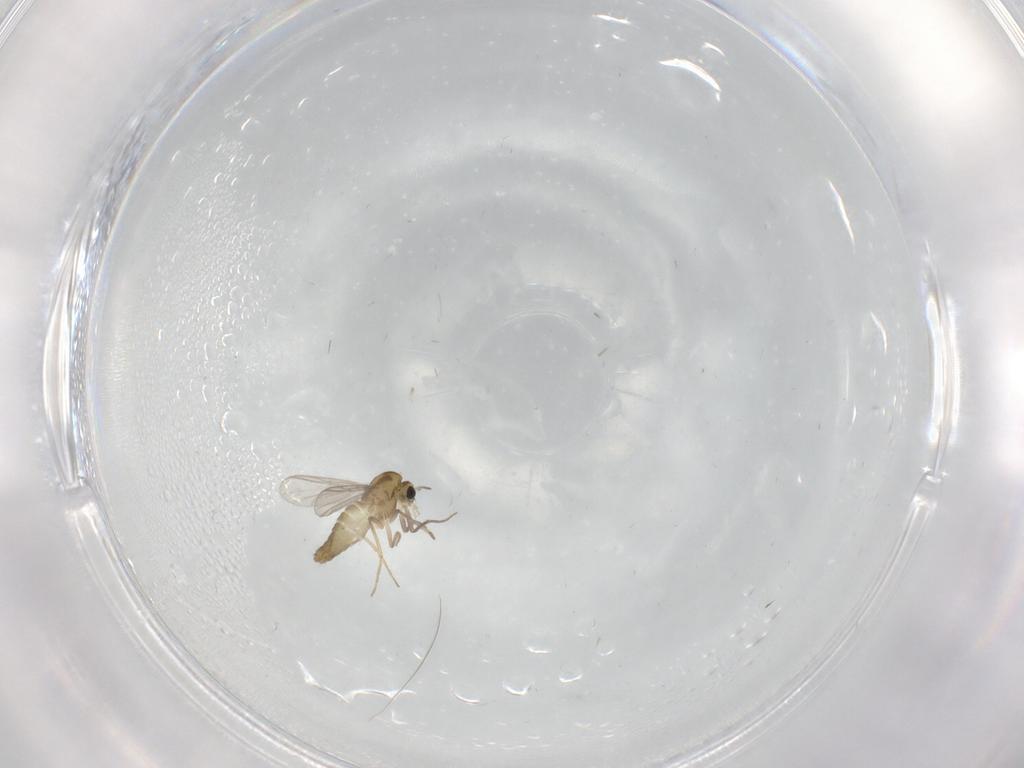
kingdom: Animalia
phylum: Arthropoda
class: Insecta
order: Diptera
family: Chironomidae
